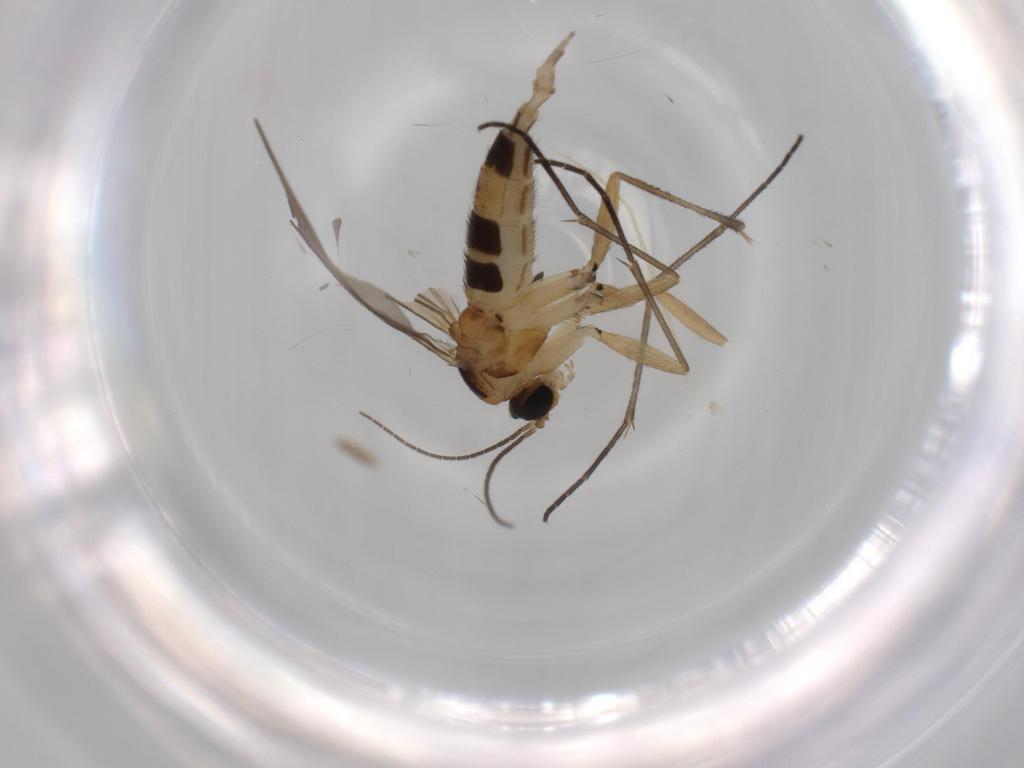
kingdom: Animalia
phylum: Arthropoda
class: Insecta
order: Diptera
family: Sciaridae
